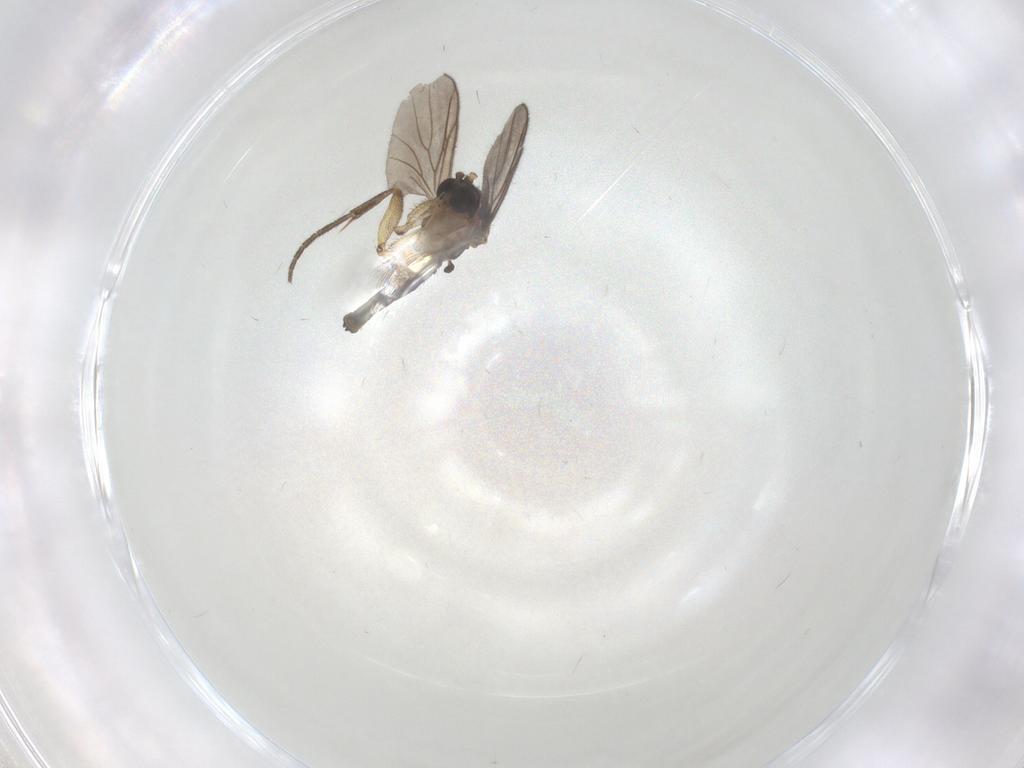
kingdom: Animalia
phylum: Arthropoda
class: Insecta
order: Diptera
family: Mycetophilidae
